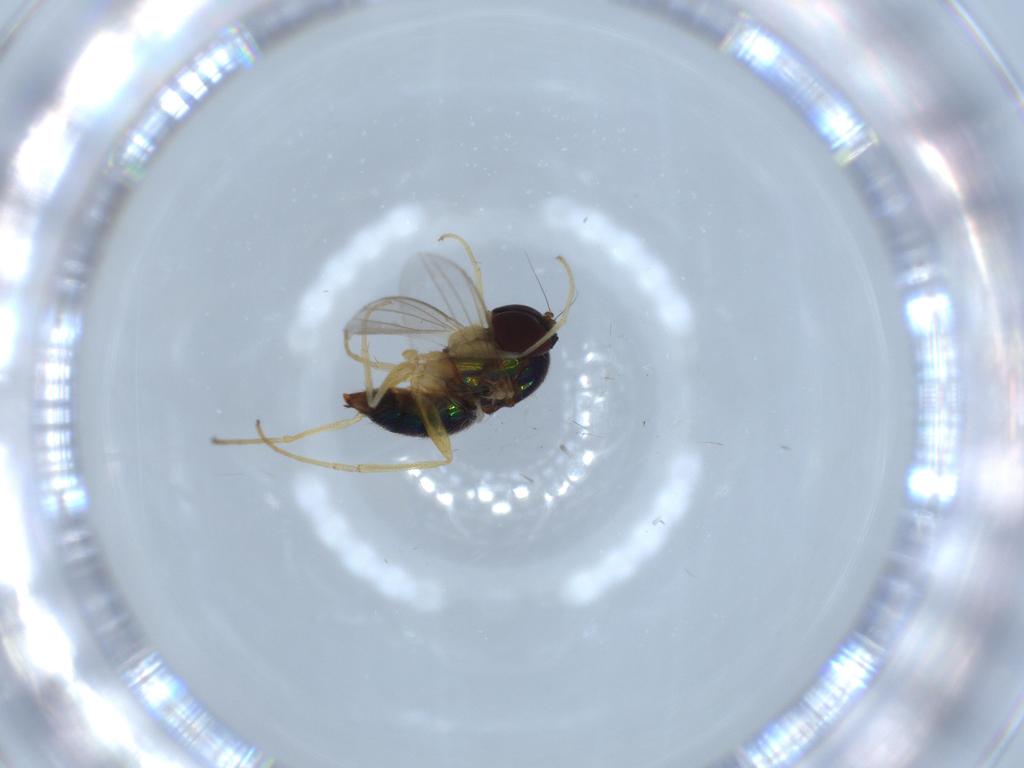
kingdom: Animalia
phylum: Arthropoda
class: Insecta
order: Diptera
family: Dolichopodidae
